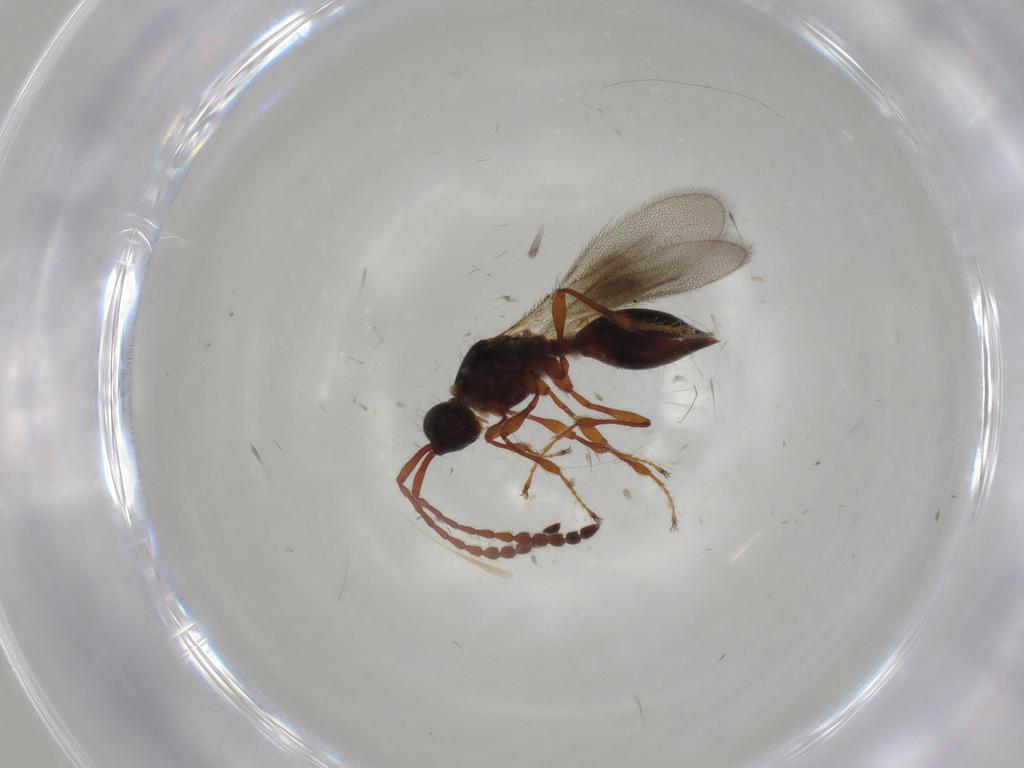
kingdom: Animalia
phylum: Arthropoda
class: Insecta
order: Hymenoptera
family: Diapriidae
